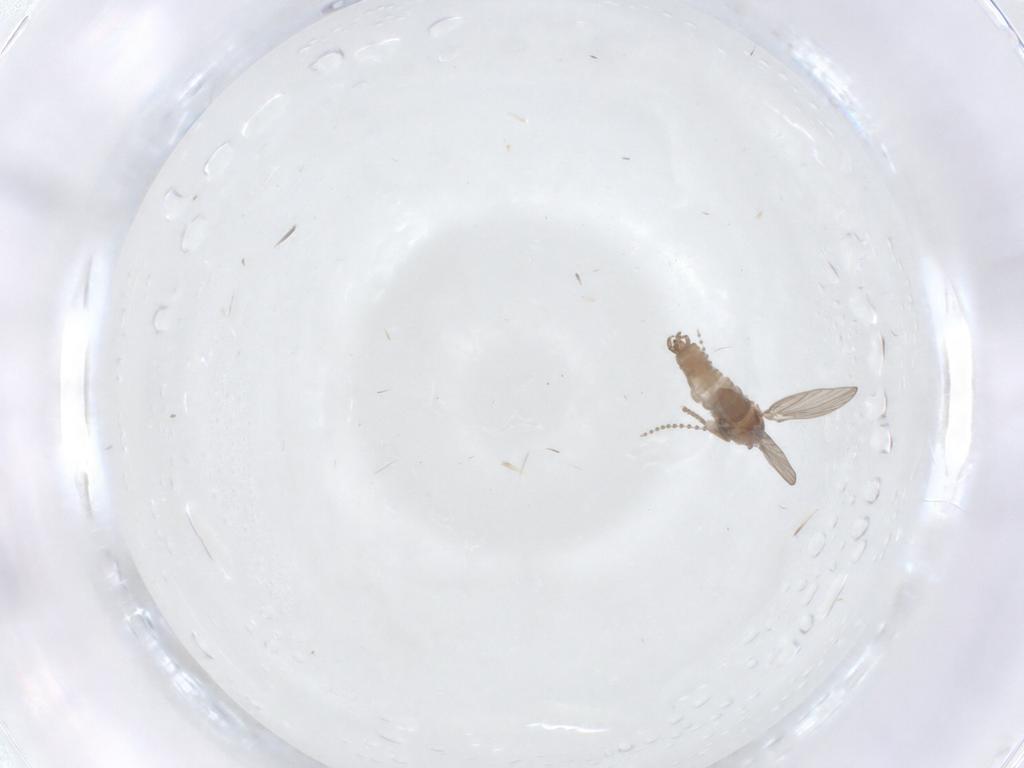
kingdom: Animalia
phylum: Arthropoda
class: Insecta
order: Diptera
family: Psychodidae
